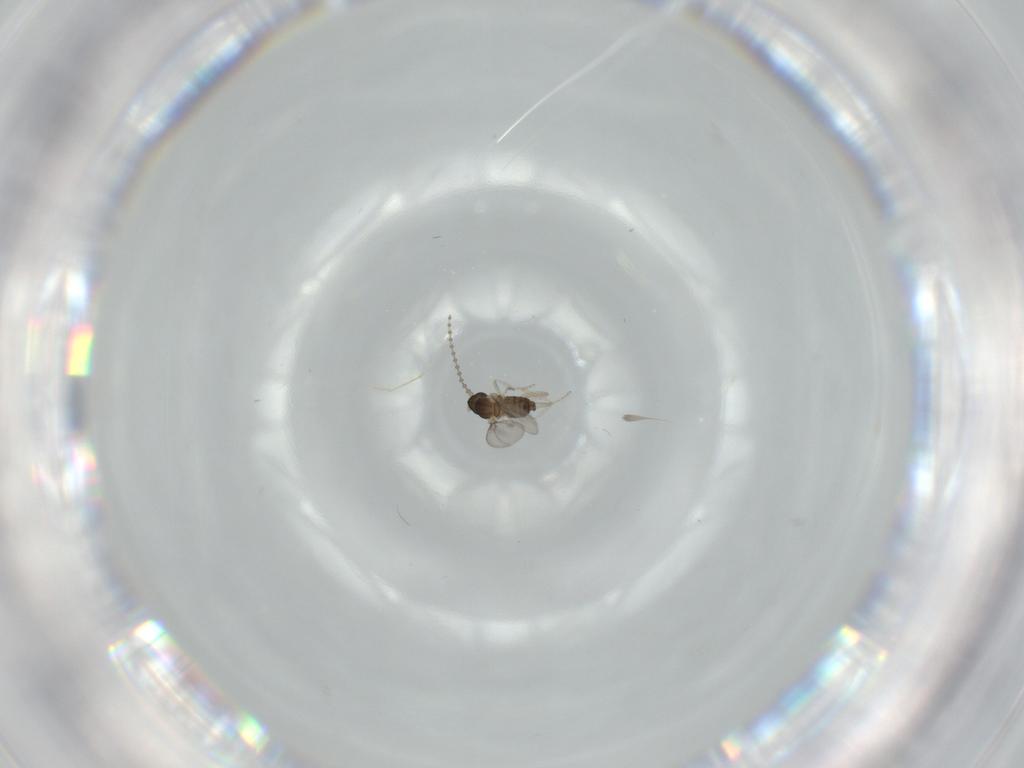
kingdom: Animalia
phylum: Arthropoda
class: Insecta
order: Diptera
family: Cecidomyiidae
